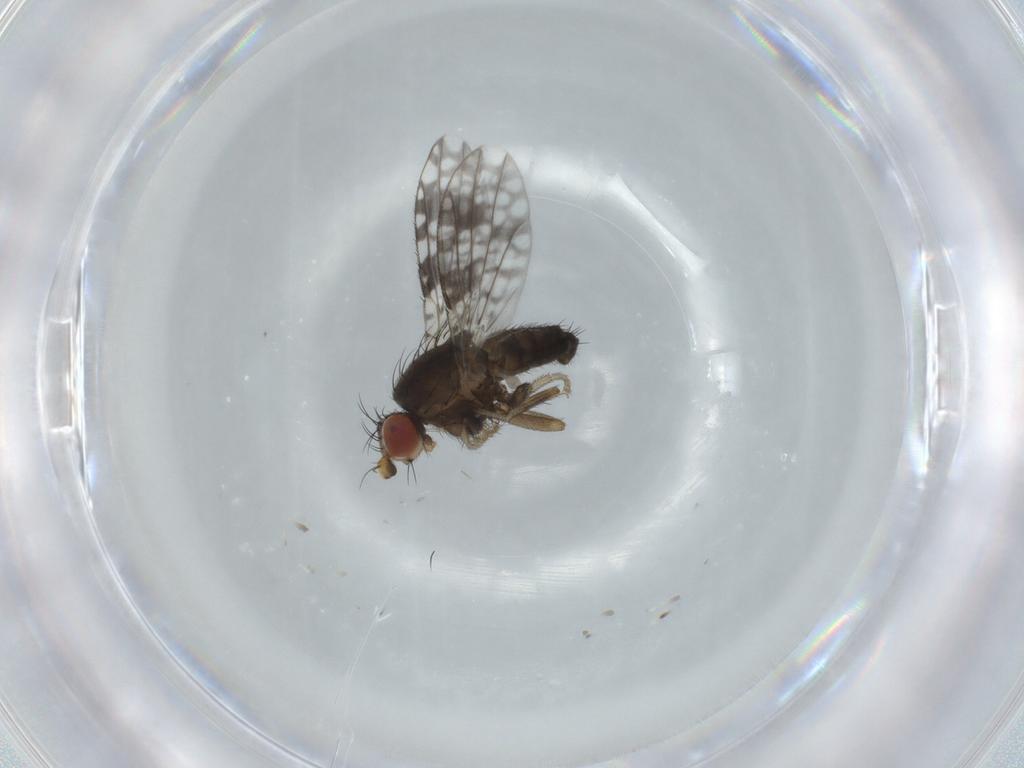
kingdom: Animalia
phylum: Arthropoda
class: Insecta
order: Diptera
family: Tephritidae
